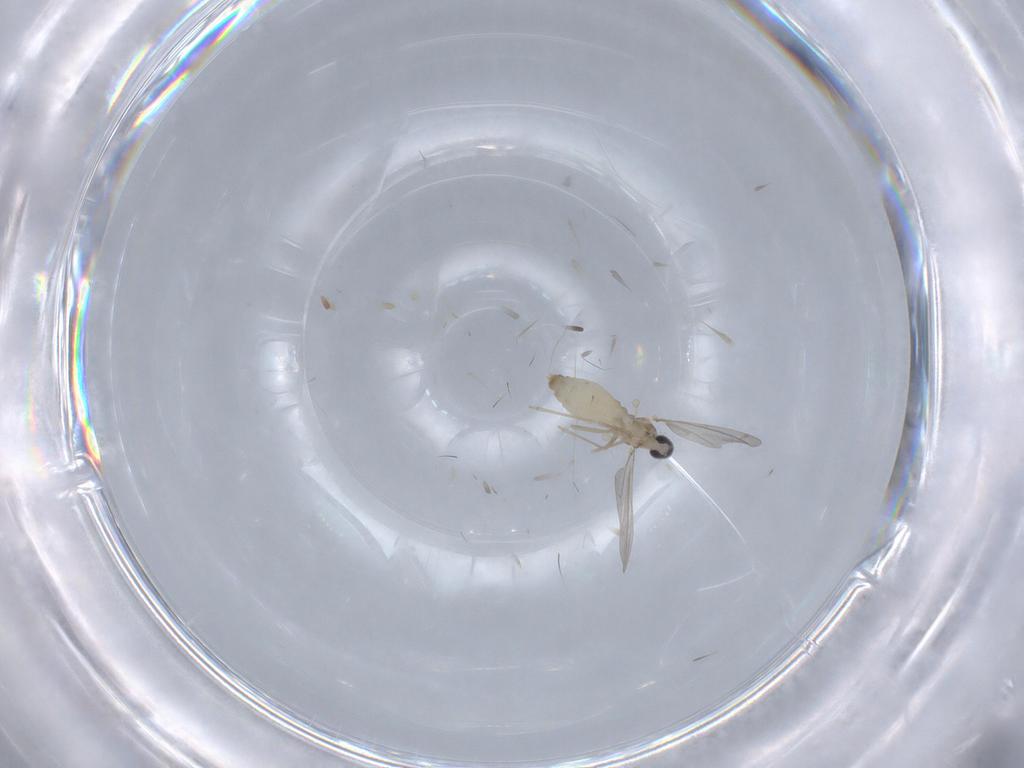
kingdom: Animalia
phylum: Arthropoda
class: Insecta
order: Diptera
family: Cecidomyiidae
